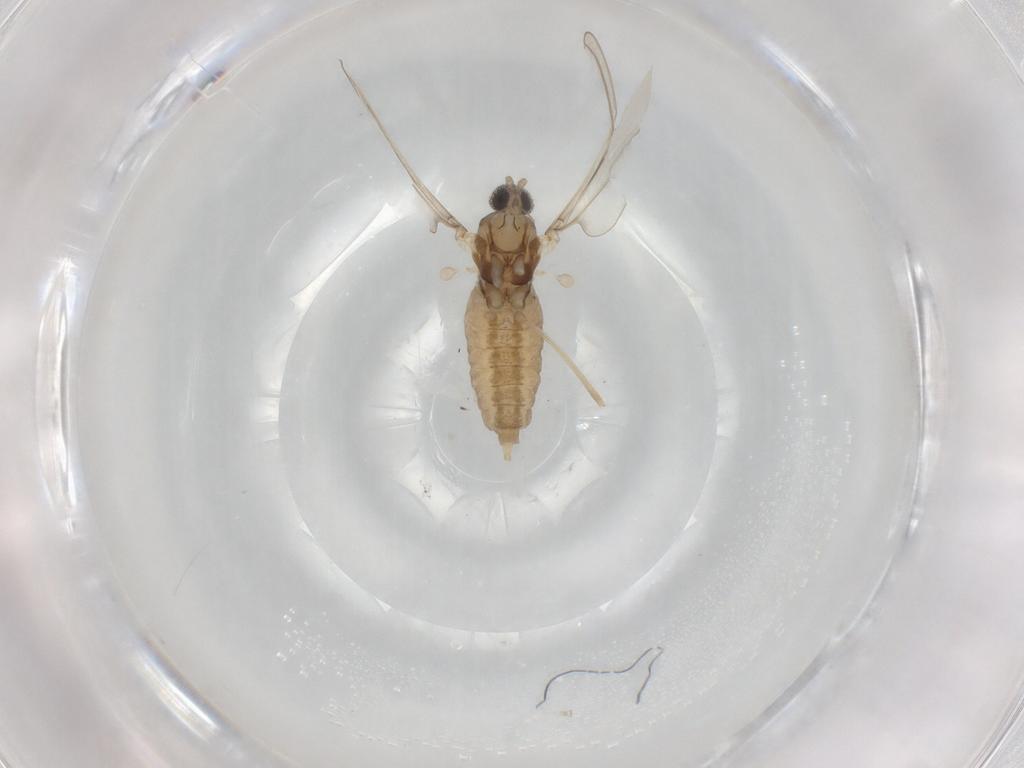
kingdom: Animalia
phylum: Arthropoda
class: Insecta
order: Diptera
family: Cecidomyiidae
